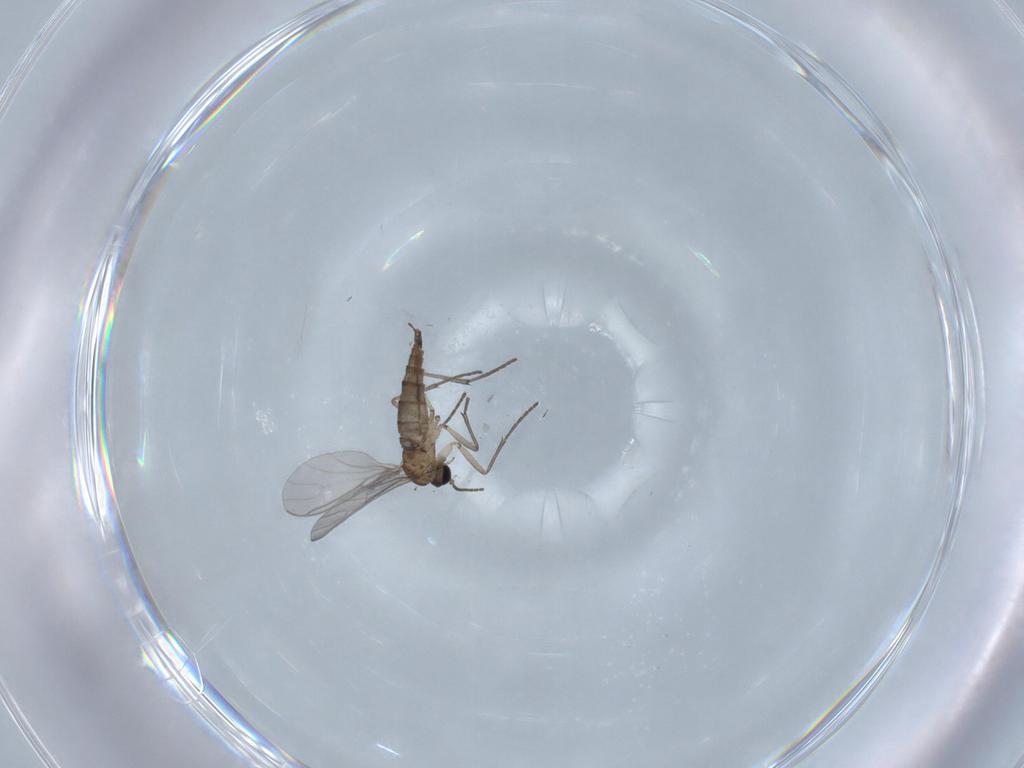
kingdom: Animalia
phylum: Arthropoda
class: Insecta
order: Diptera
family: Sciaridae
